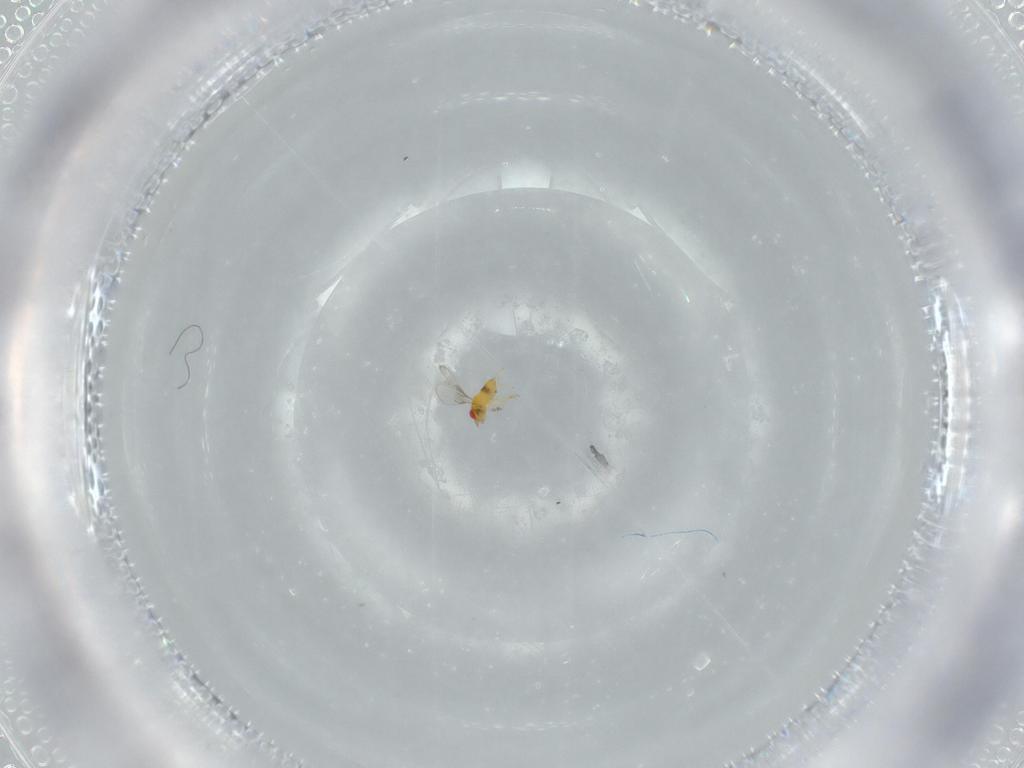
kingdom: Animalia
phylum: Arthropoda
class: Insecta
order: Hymenoptera
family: Trichogrammatidae
